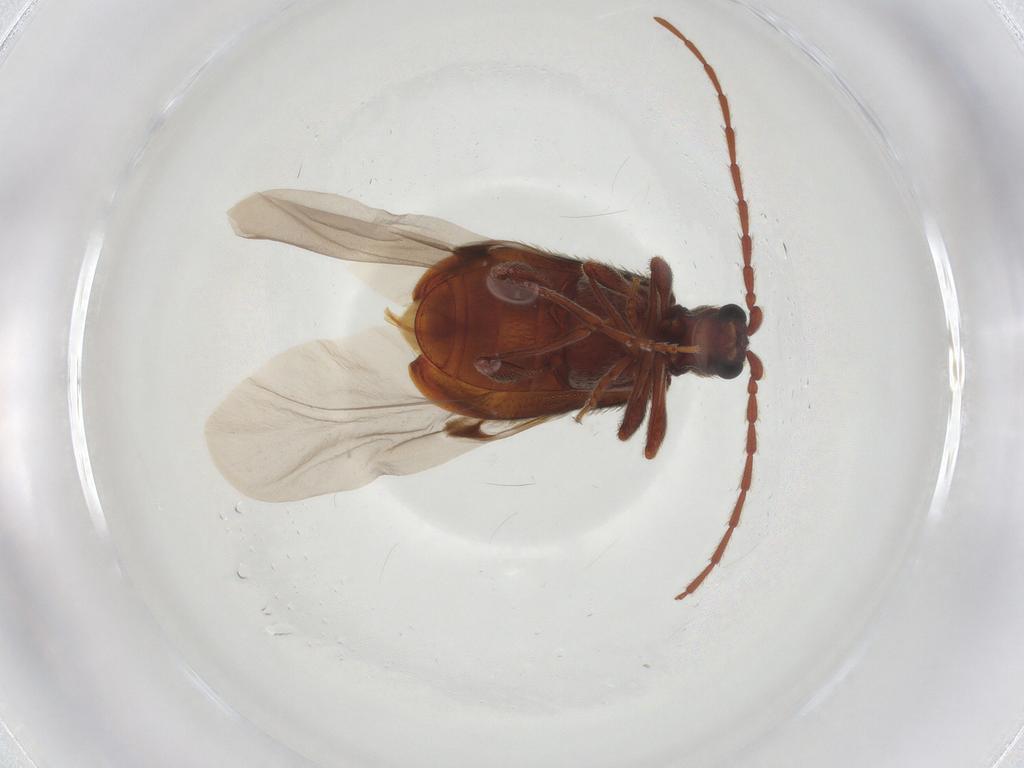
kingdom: Animalia
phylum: Arthropoda
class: Insecta
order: Coleoptera
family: Ptinidae
